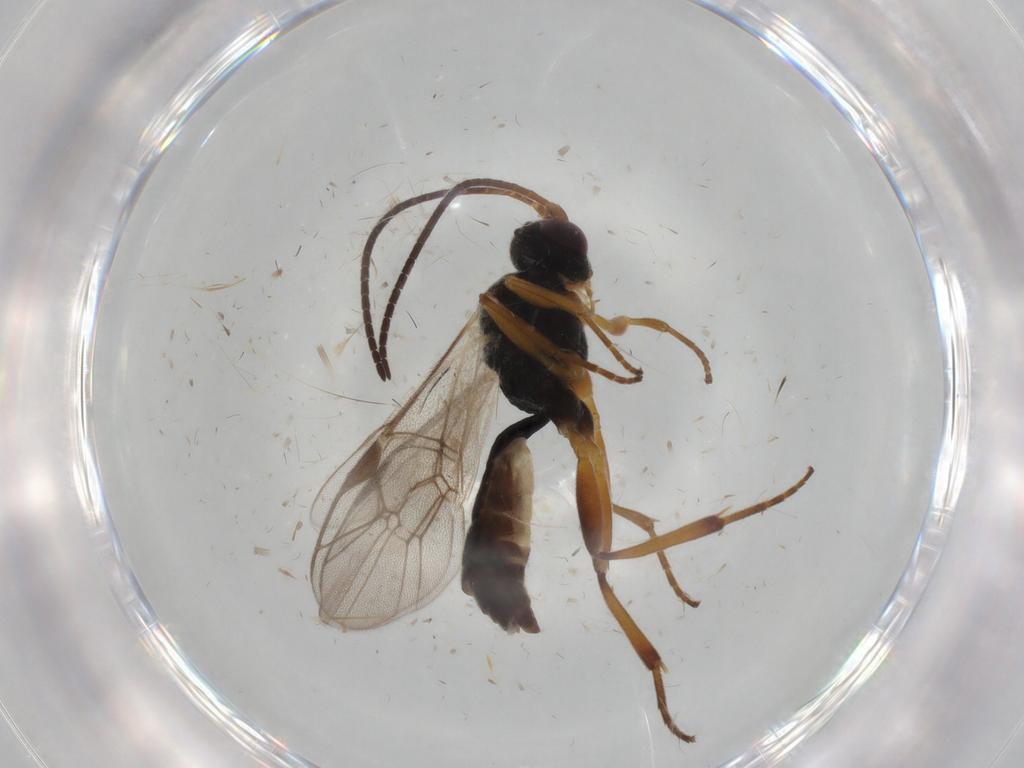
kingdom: Animalia
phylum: Arthropoda
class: Insecta
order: Hymenoptera
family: Ichneumonidae
